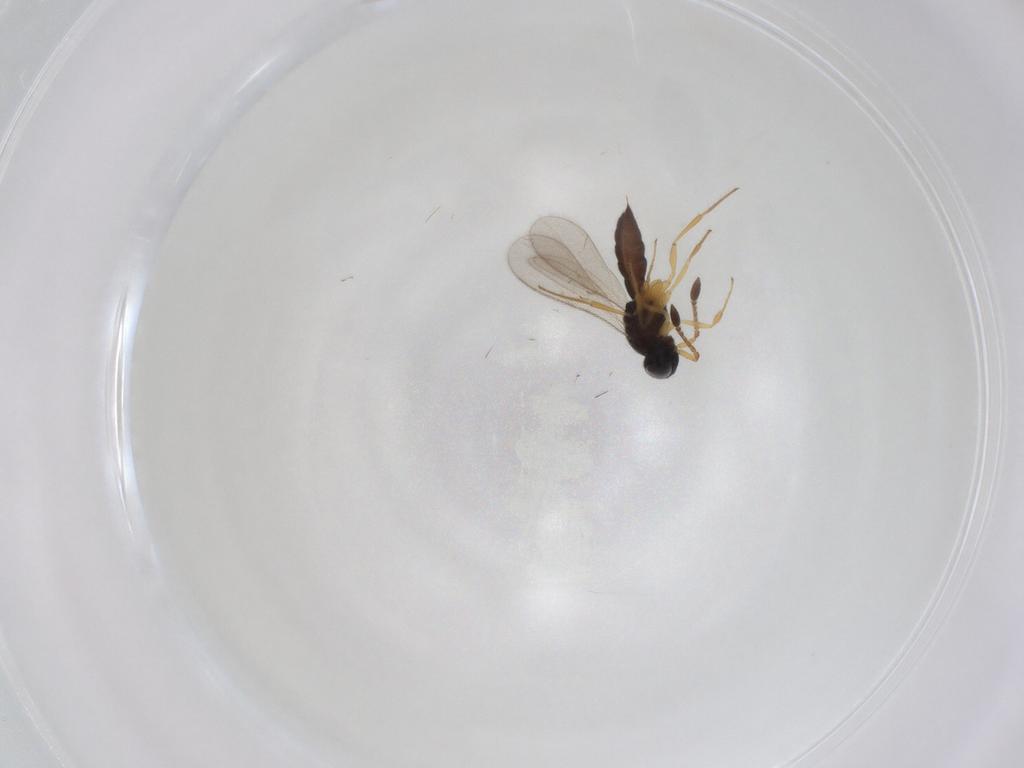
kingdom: Animalia
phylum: Arthropoda
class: Insecta
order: Hymenoptera
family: Scelionidae
